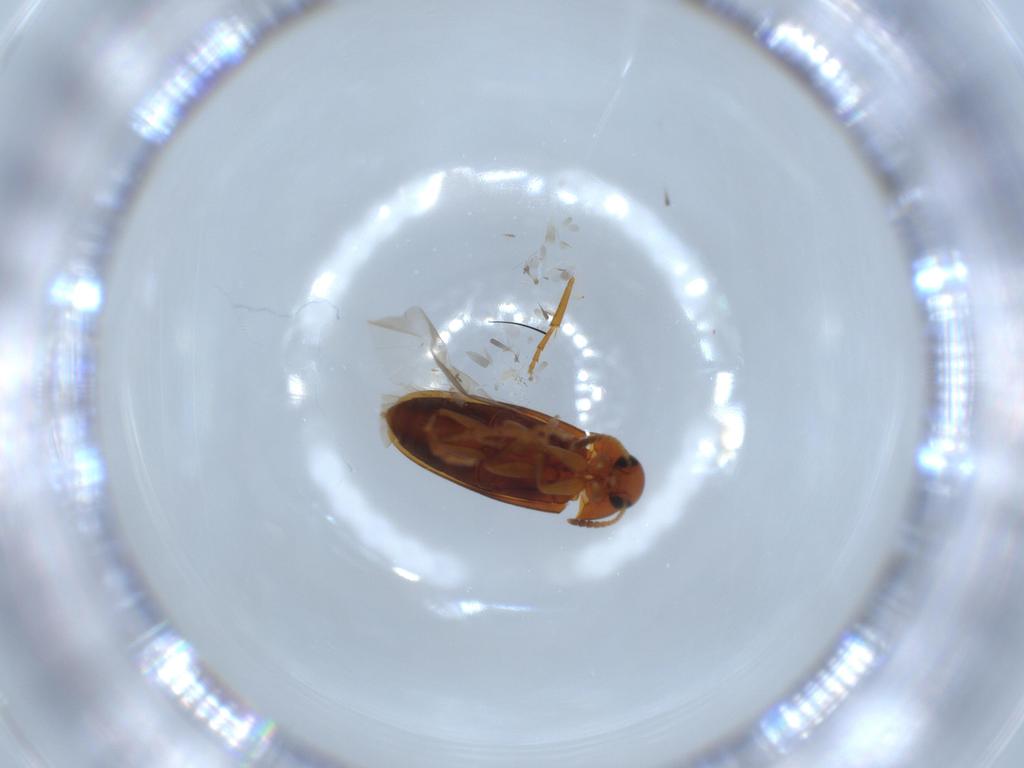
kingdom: Animalia
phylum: Arthropoda
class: Insecta
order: Coleoptera
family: Scraptiidae
